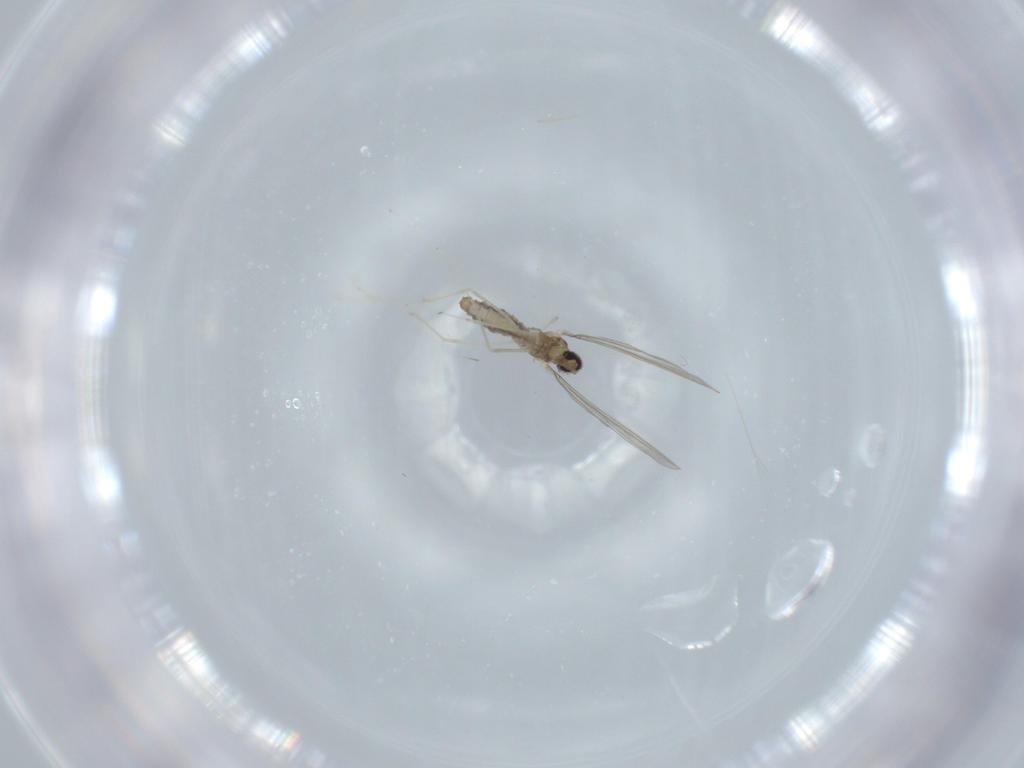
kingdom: Animalia
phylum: Arthropoda
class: Insecta
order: Diptera
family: Cecidomyiidae
